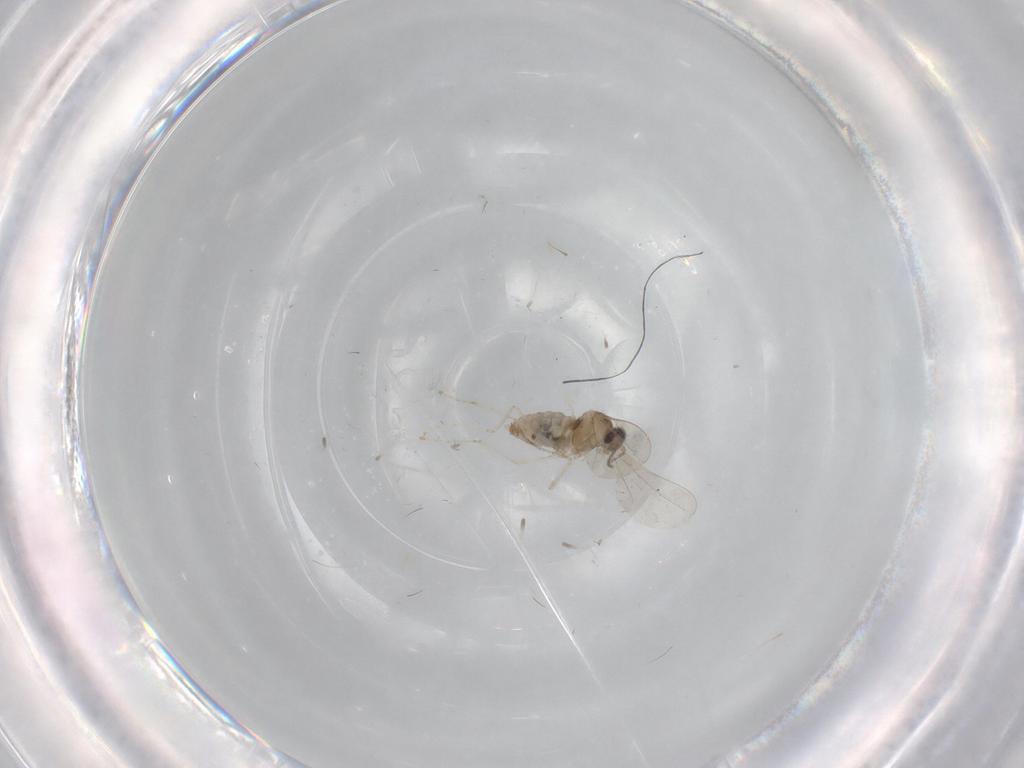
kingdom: Animalia
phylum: Arthropoda
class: Insecta
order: Diptera
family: Cecidomyiidae
